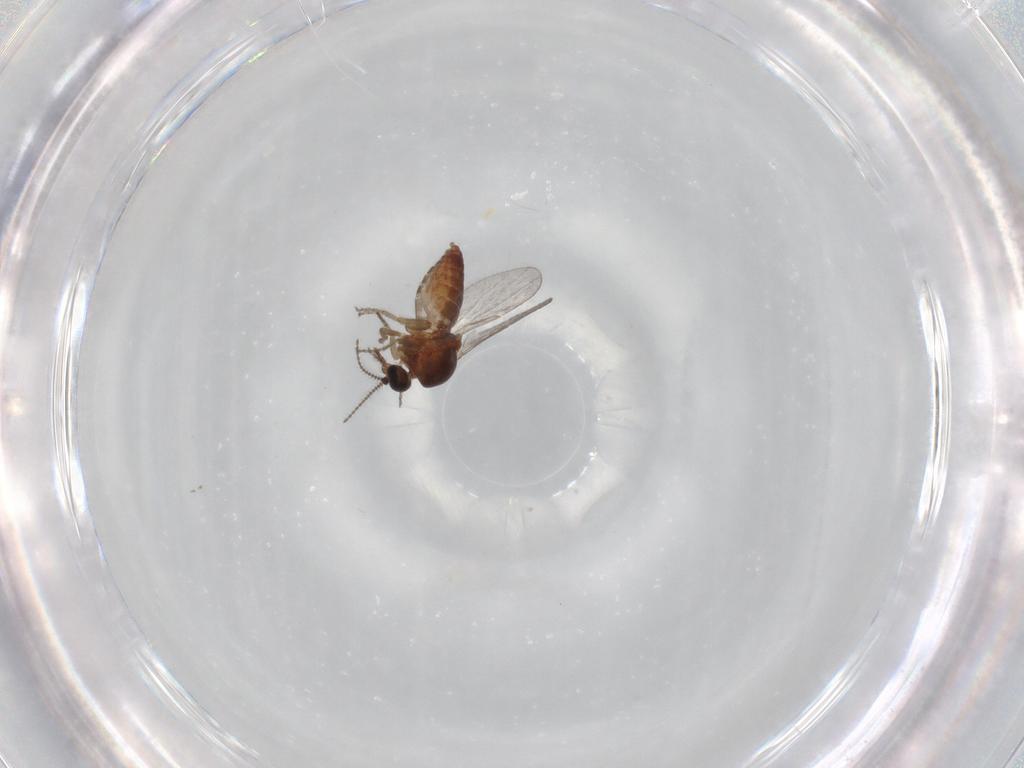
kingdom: Animalia
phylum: Arthropoda
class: Insecta
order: Diptera
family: Ceratopogonidae
